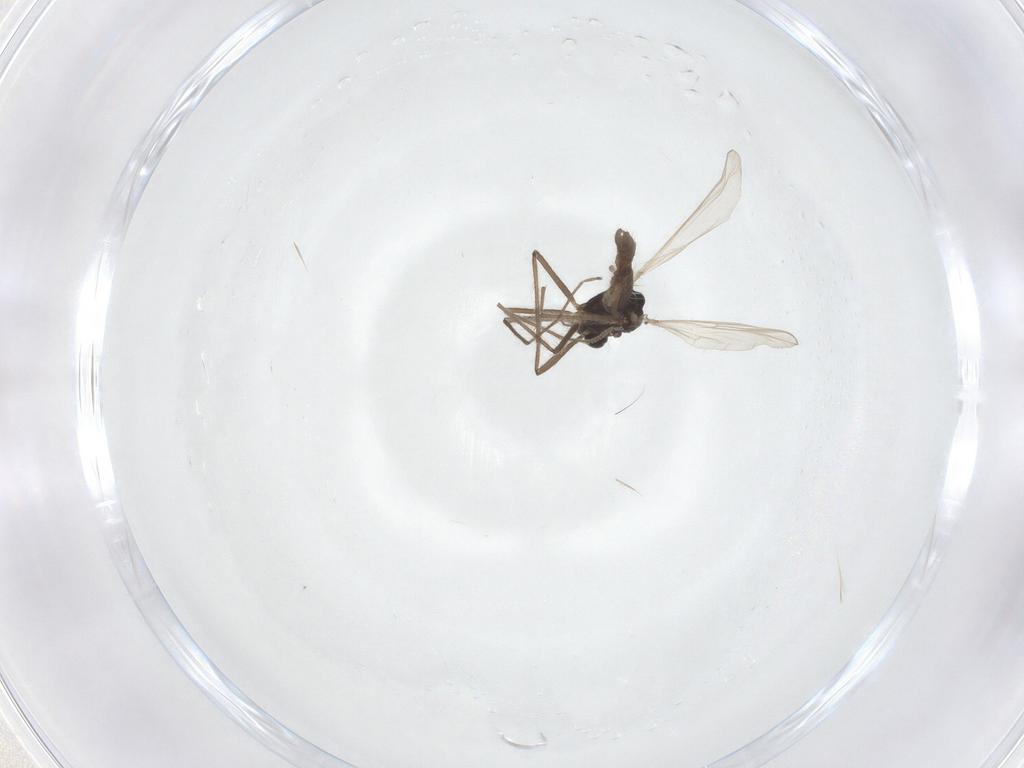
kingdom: Animalia
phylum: Arthropoda
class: Insecta
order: Diptera
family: Chironomidae
